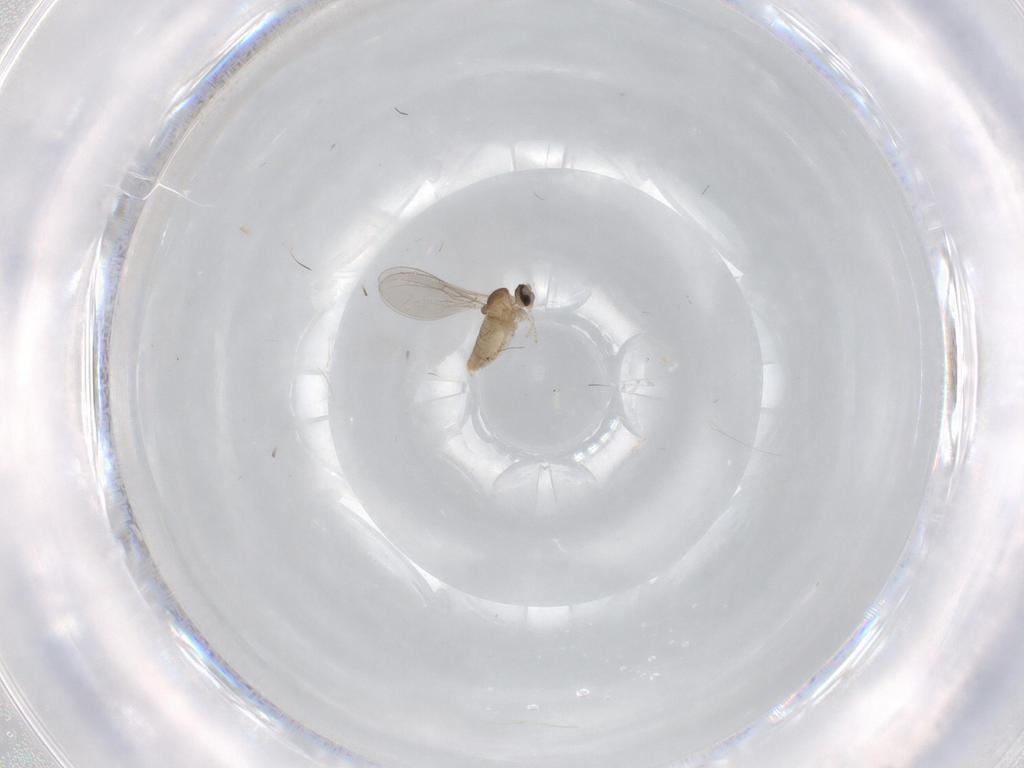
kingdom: Animalia
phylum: Arthropoda
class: Insecta
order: Diptera
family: Cecidomyiidae
